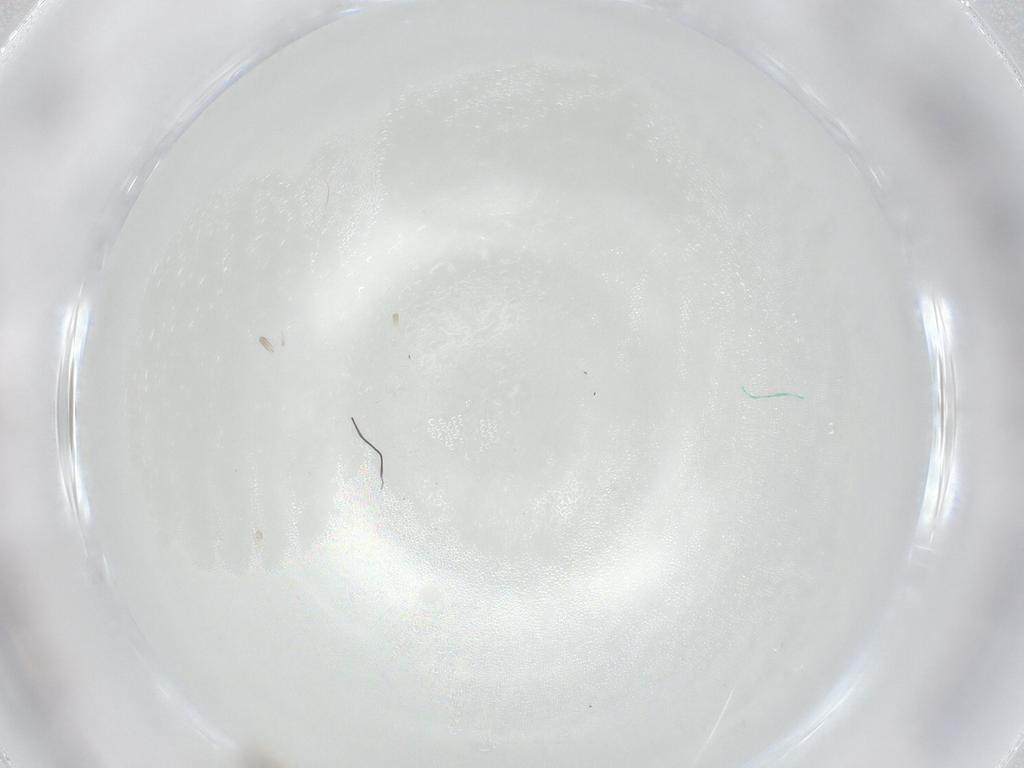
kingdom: Animalia
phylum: Arthropoda
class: Insecta
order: Diptera
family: Cecidomyiidae
